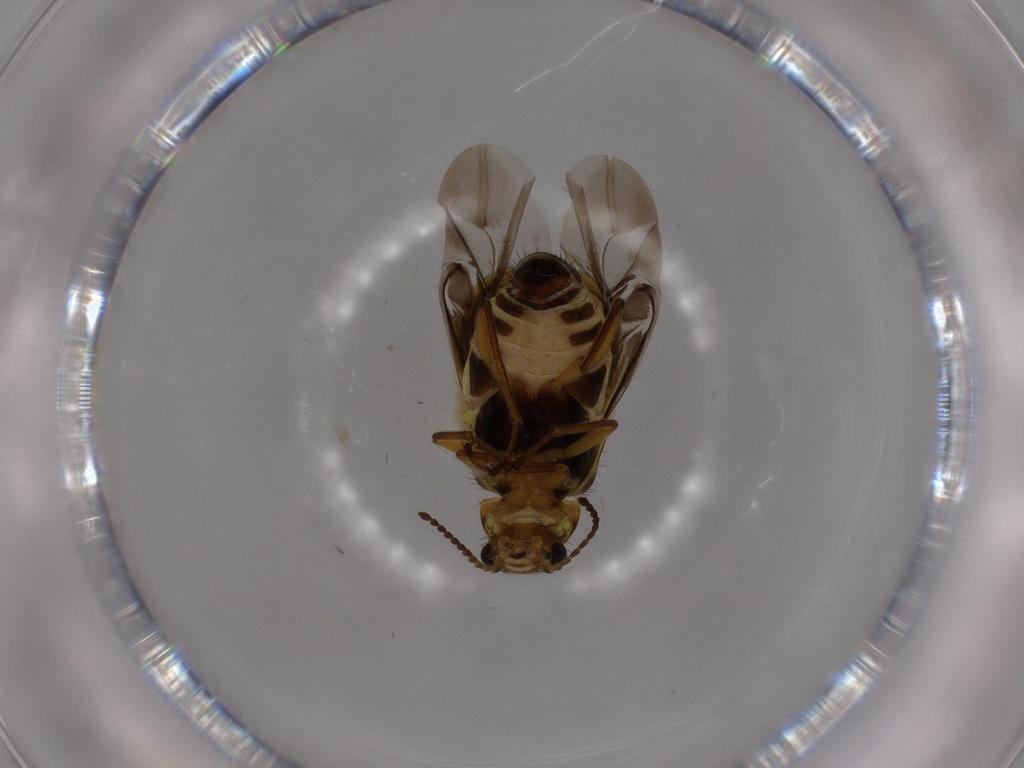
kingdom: Animalia
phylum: Arthropoda
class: Insecta
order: Coleoptera
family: Melyridae
